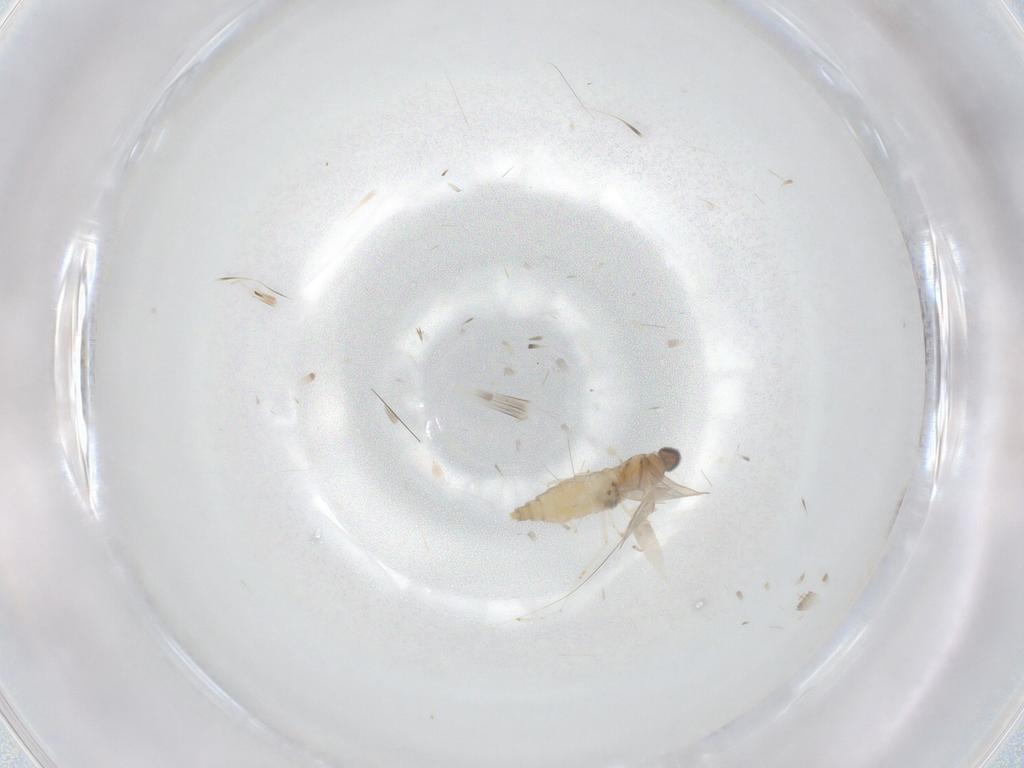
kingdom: Animalia
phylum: Arthropoda
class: Insecta
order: Diptera
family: Cecidomyiidae
